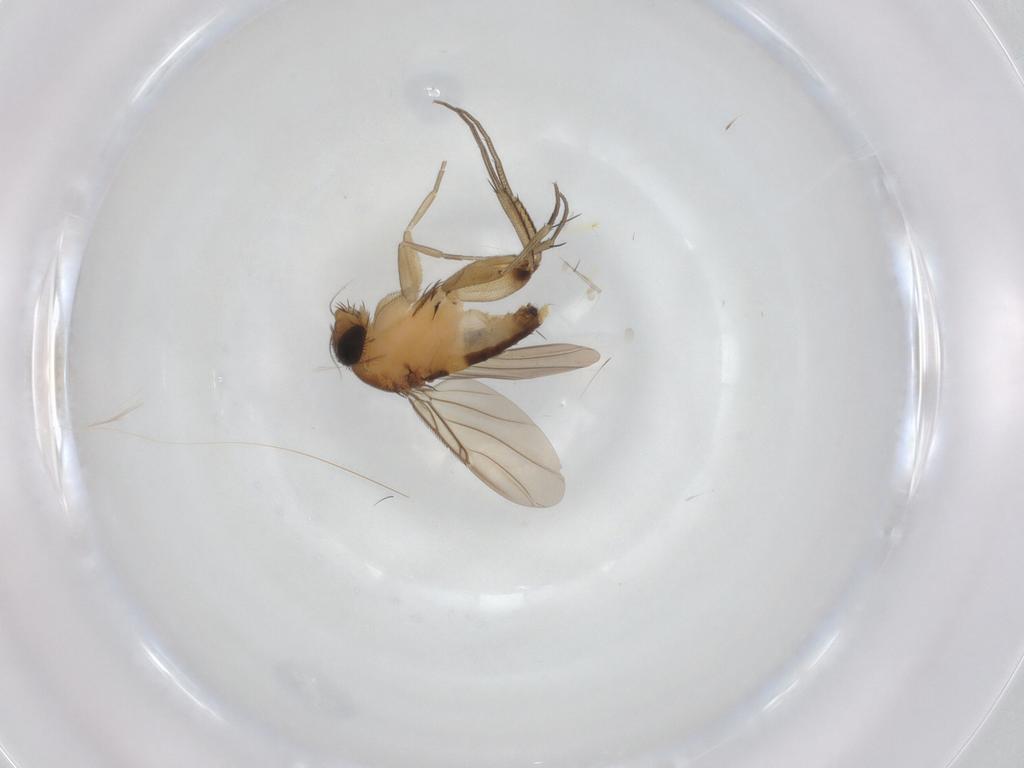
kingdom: Animalia
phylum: Arthropoda
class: Insecta
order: Diptera
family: Phoridae
